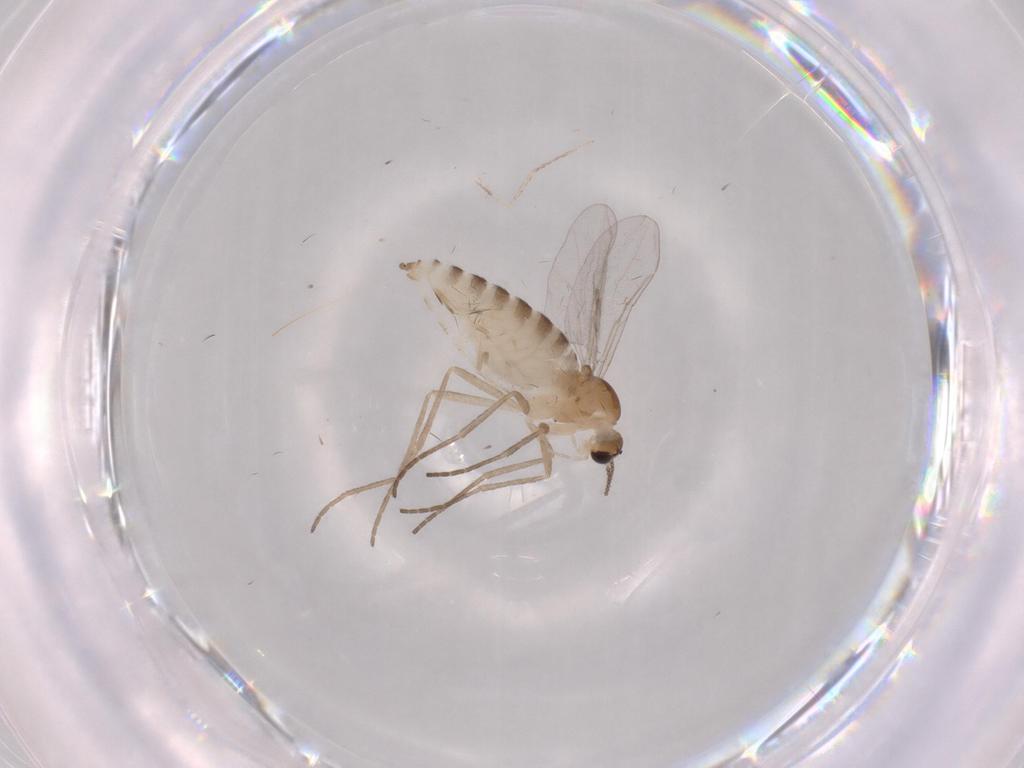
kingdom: Animalia
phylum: Arthropoda
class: Insecta
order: Diptera
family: Cecidomyiidae
